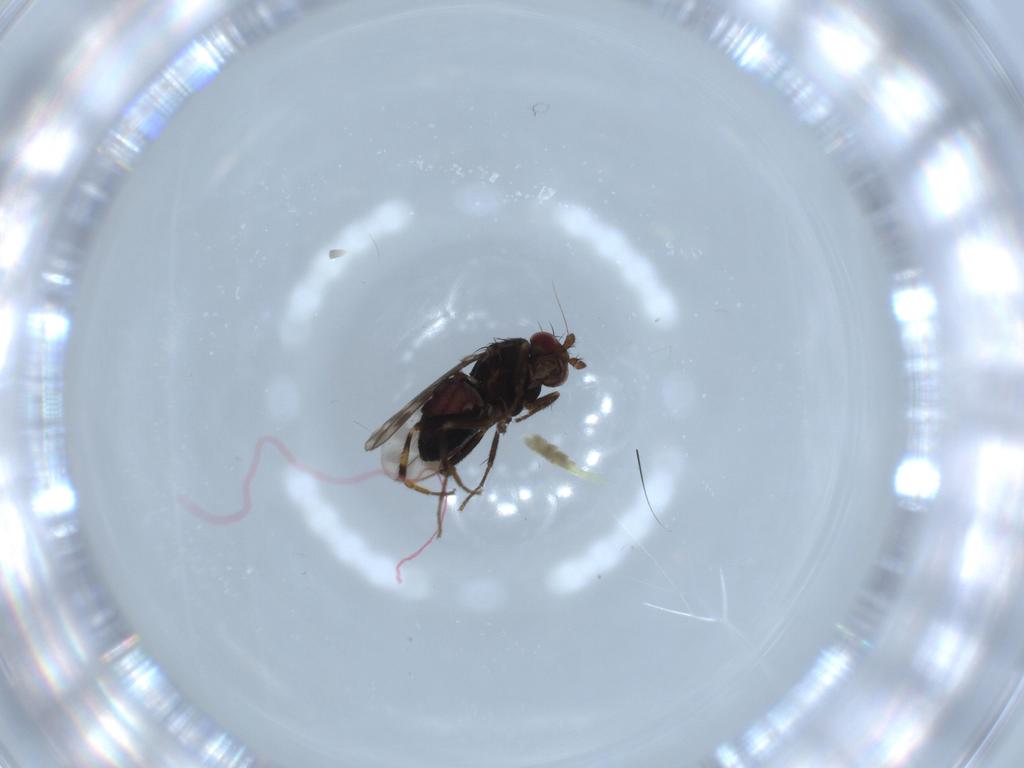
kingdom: Animalia
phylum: Arthropoda
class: Insecta
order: Diptera
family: Sphaeroceridae
